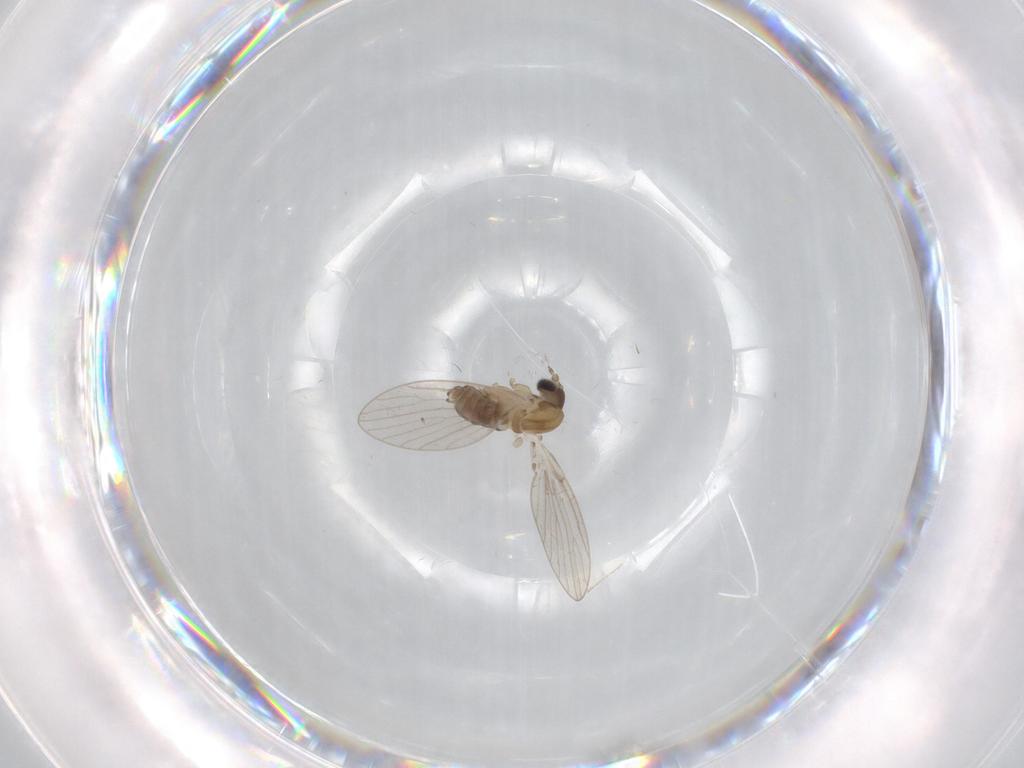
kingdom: Animalia
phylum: Arthropoda
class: Insecta
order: Diptera
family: Psychodidae
